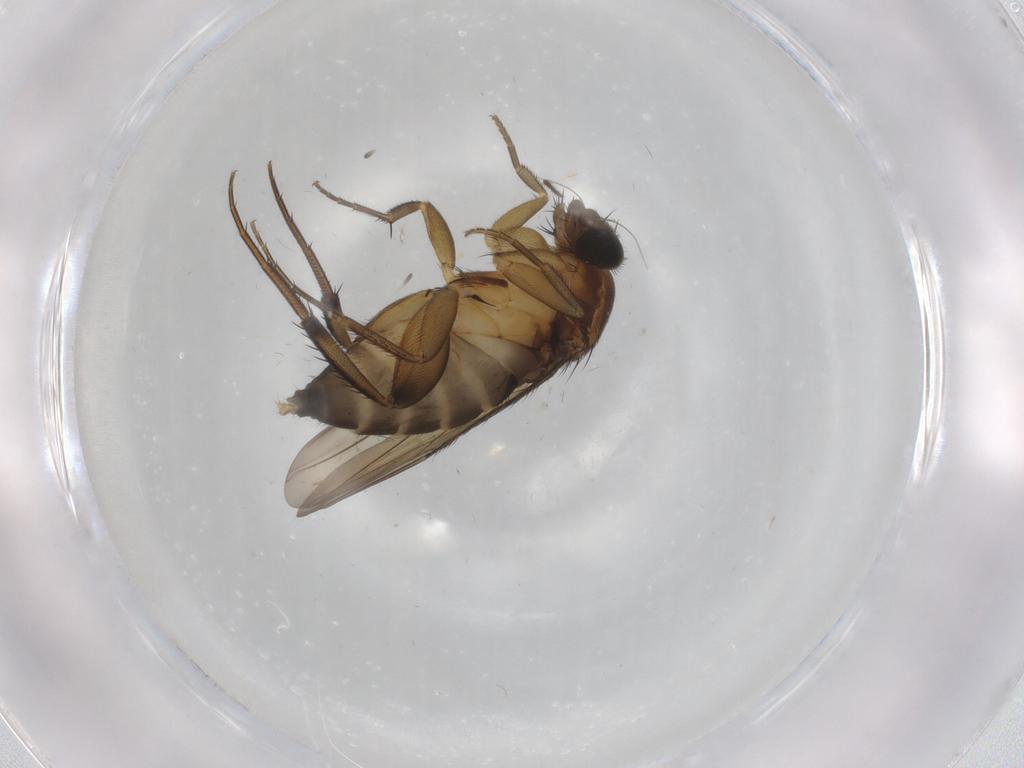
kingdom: Animalia
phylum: Arthropoda
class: Insecta
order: Diptera
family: Phoridae
